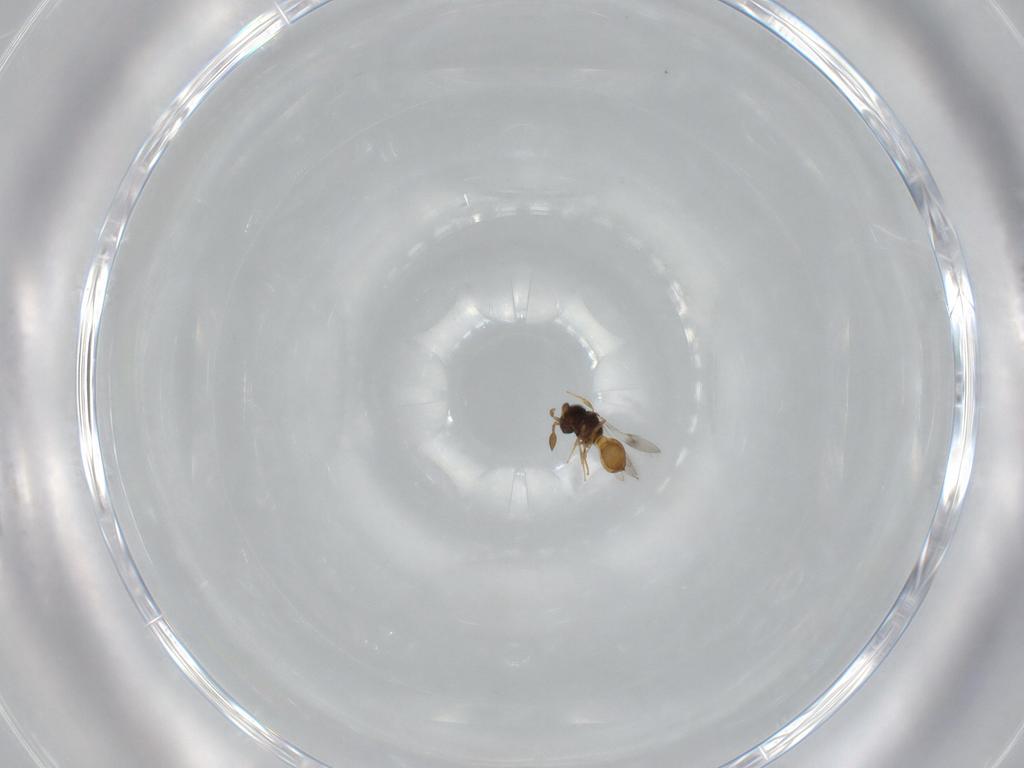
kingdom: Animalia
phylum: Arthropoda
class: Insecta
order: Hymenoptera
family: Scelionidae
